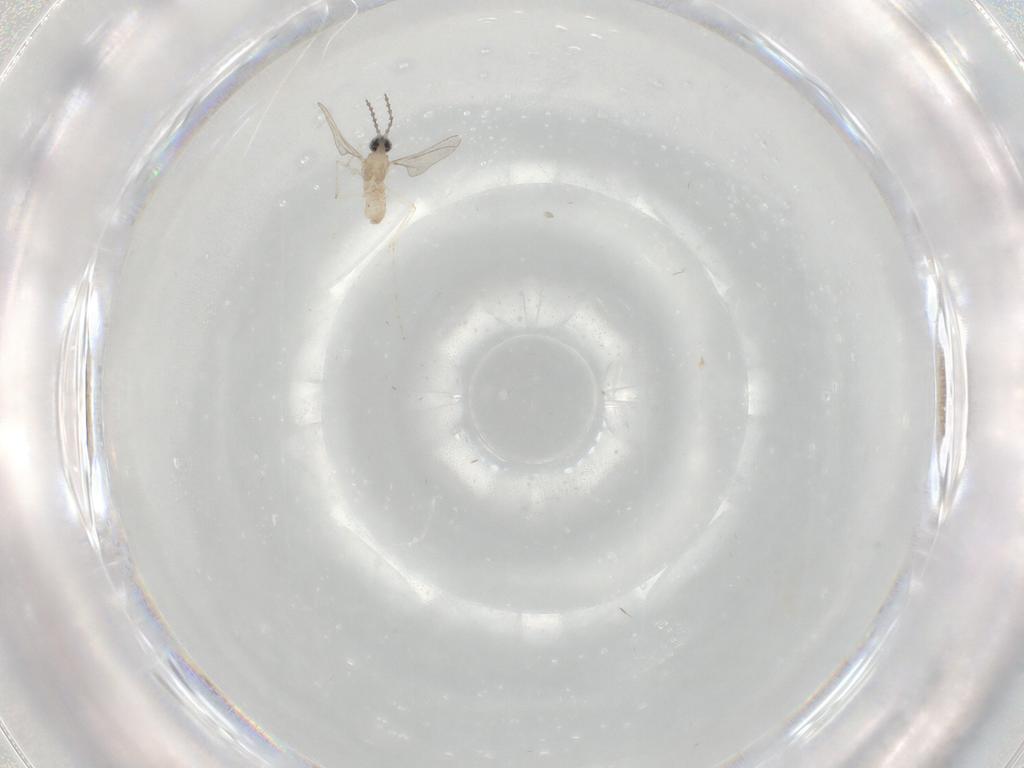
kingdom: Animalia
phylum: Arthropoda
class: Insecta
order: Diptera
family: Cecidomyiidae
